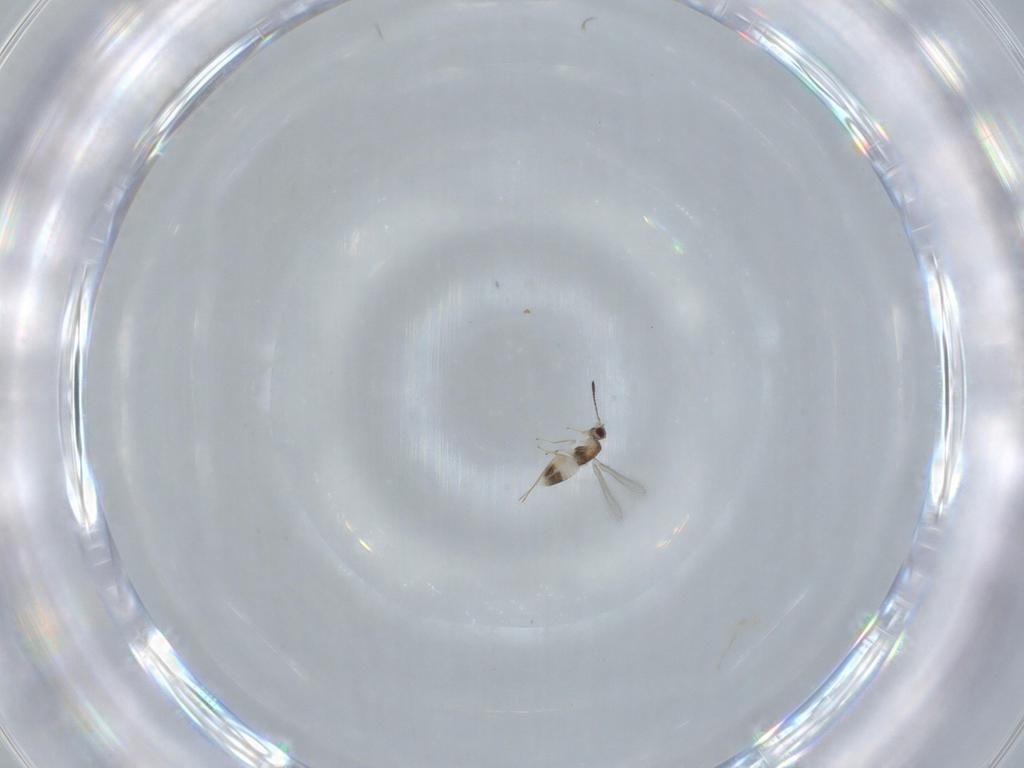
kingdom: Animalia
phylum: Arthropoda
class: Insecta
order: Hymenoptera
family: Mymaridae
